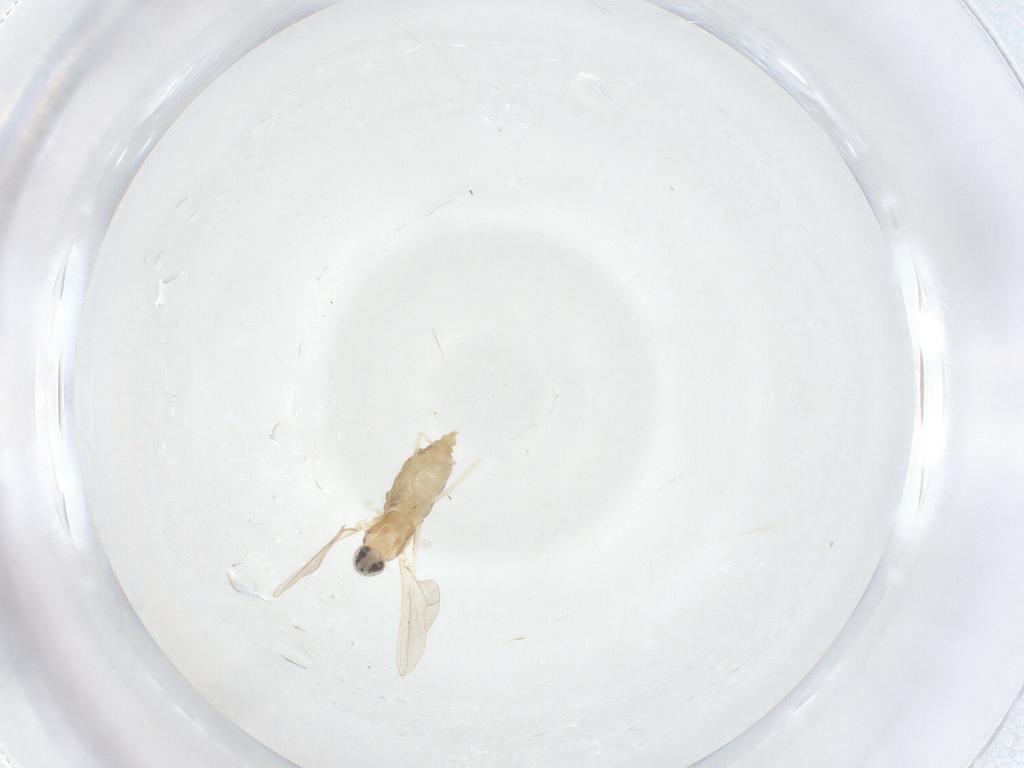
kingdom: Animalia
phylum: Arthropoda
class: Insecta
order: Diptera
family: Cecidomyiidae
